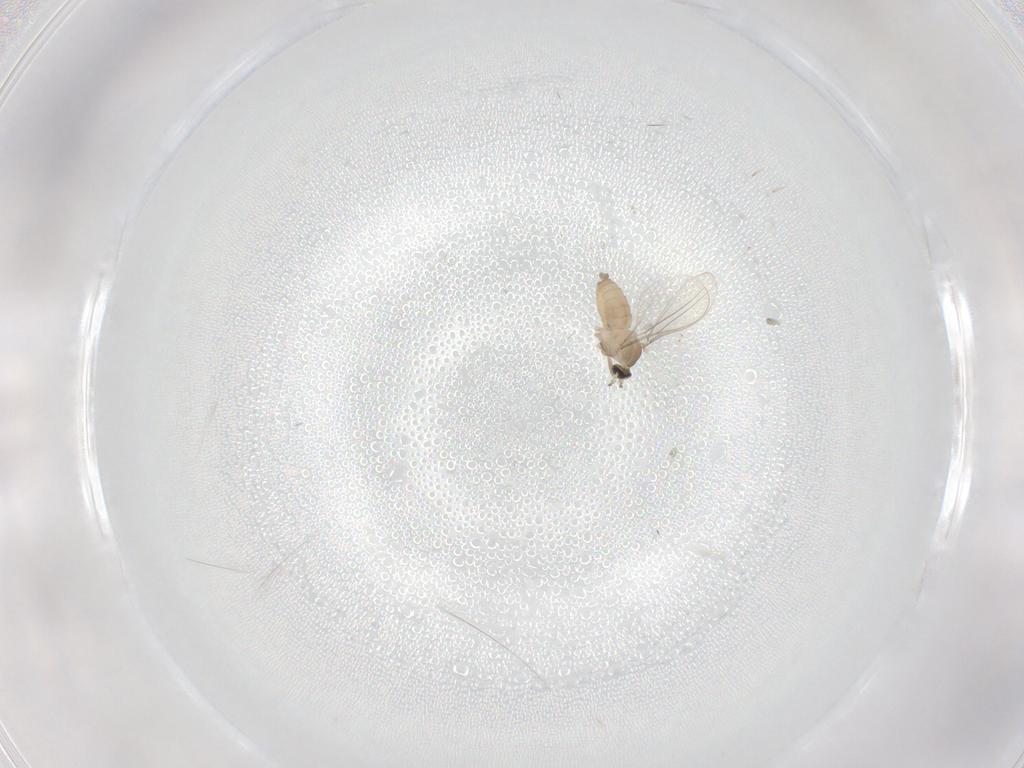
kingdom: Animalia
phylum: Arthropoda
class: Insecta
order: Diptera
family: Cecidomyiidae
